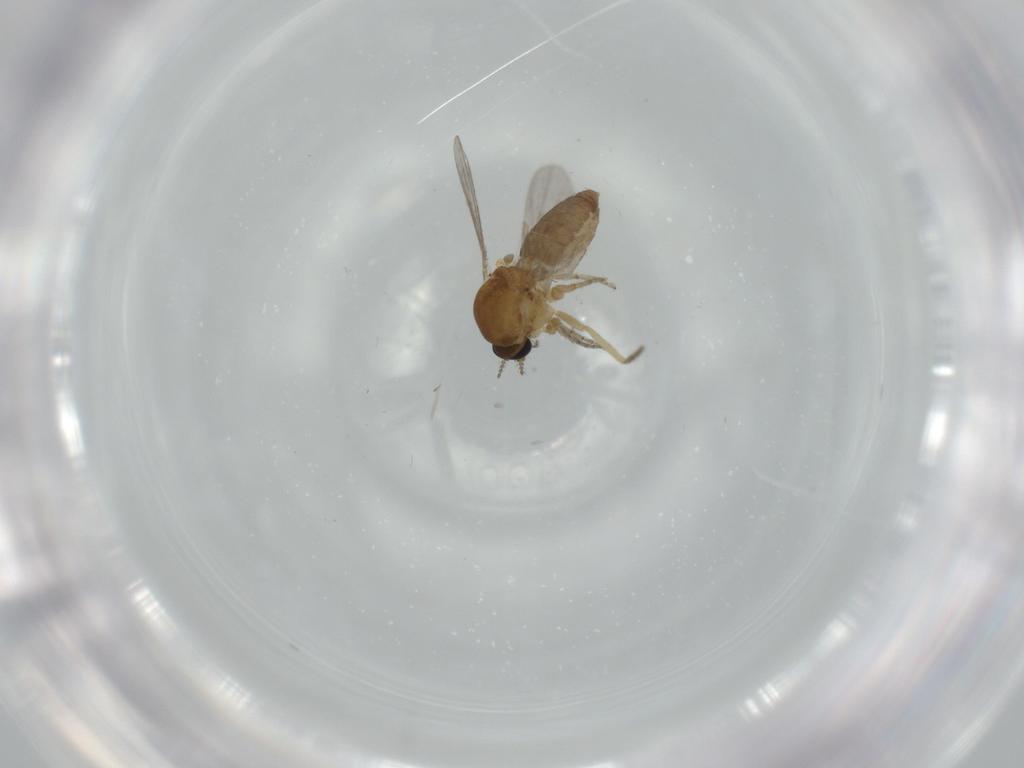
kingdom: Animalia
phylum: Arthropoda
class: Insecta
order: Diptera
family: Ceratopogonidae
